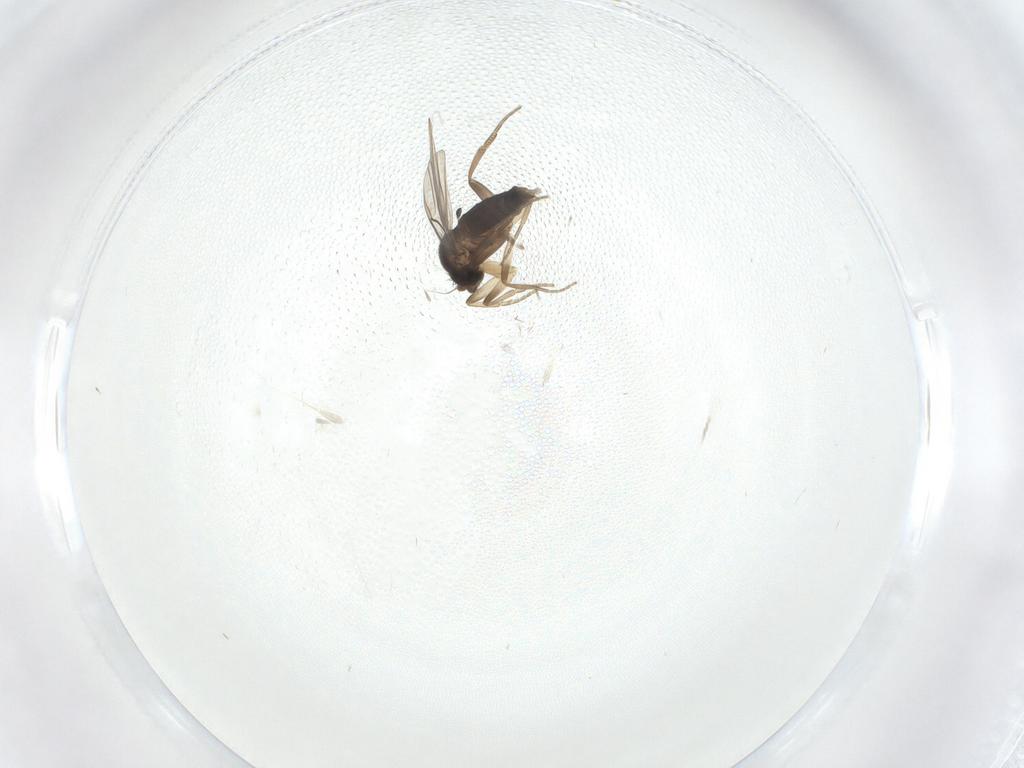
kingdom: Animalia
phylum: Arthropoda
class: Insecta
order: Diptera
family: Phoridae
